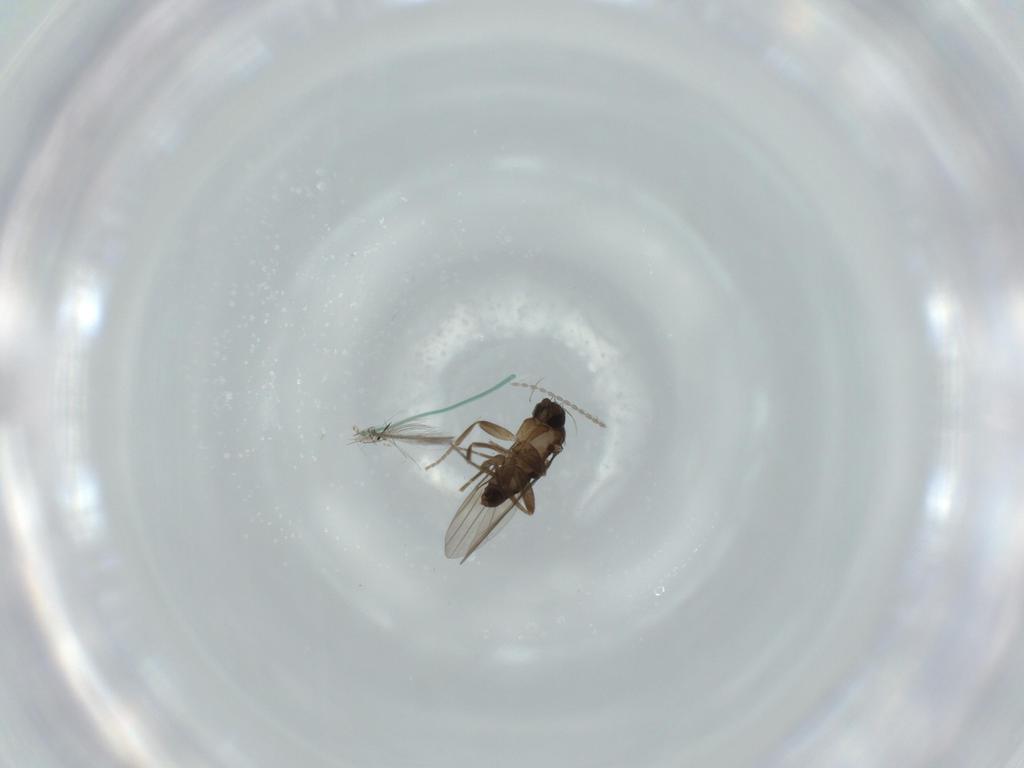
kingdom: Animalia
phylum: Arthropoda
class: Insecta
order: Diptera
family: Phoridae
